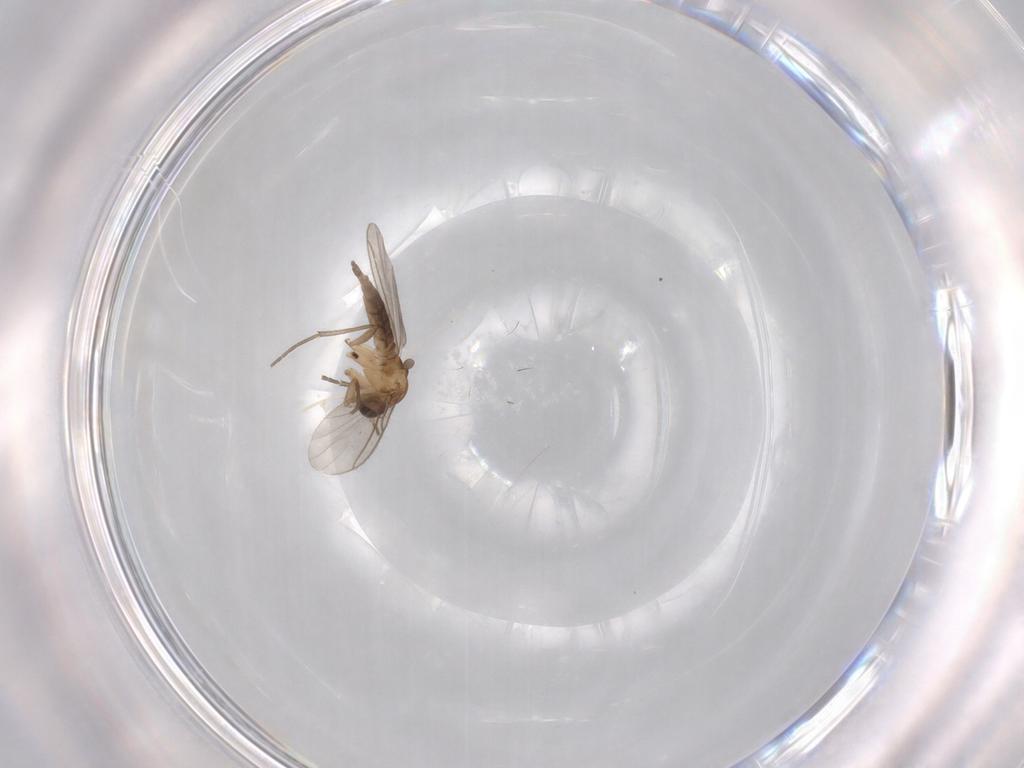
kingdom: Animalia
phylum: Arthropoda
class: Insecta
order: Diptera
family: Sciaridae
